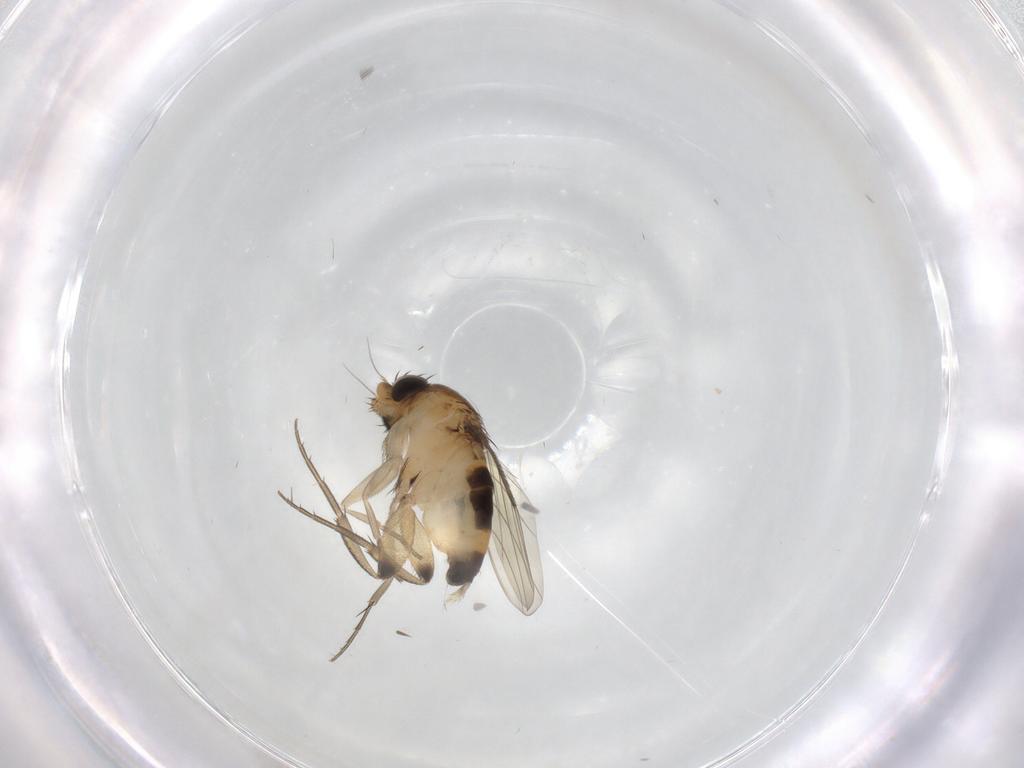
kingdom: Animalia
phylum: Arthropoda
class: Insecta
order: Diptera
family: Phoridae
